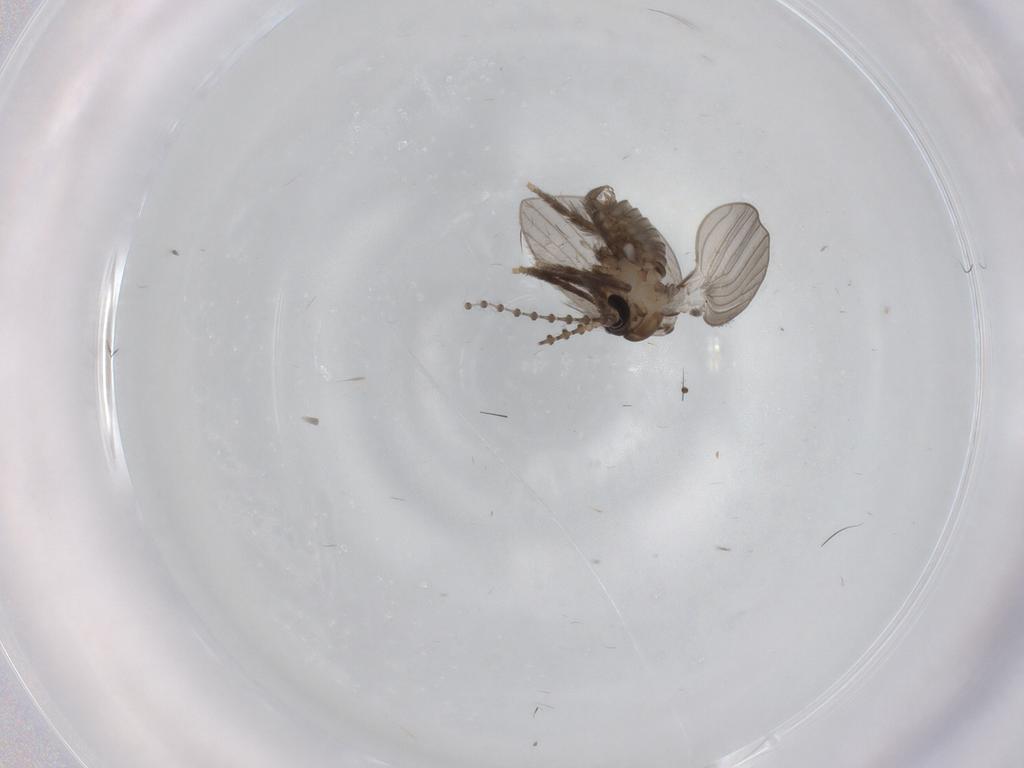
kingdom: Animalia
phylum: Arthropoda
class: Insecta
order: Diptera
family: Psychodidae
